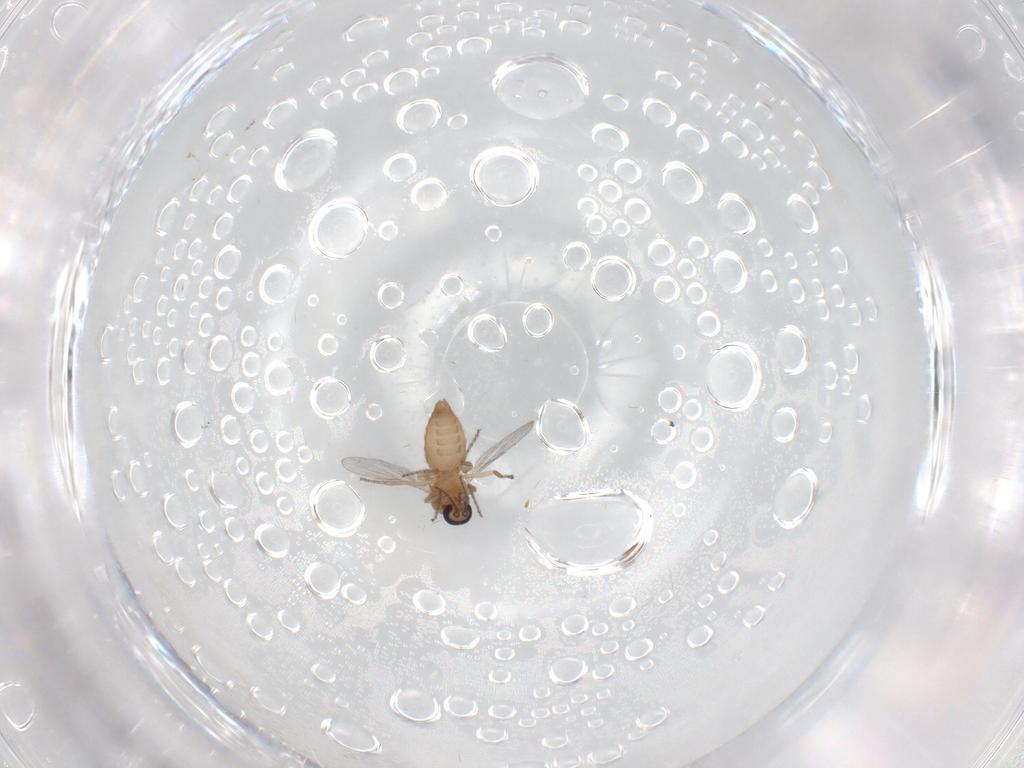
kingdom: Animalia
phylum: Arthropoda
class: Insecta
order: Diptera
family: Ceratopogonidae
